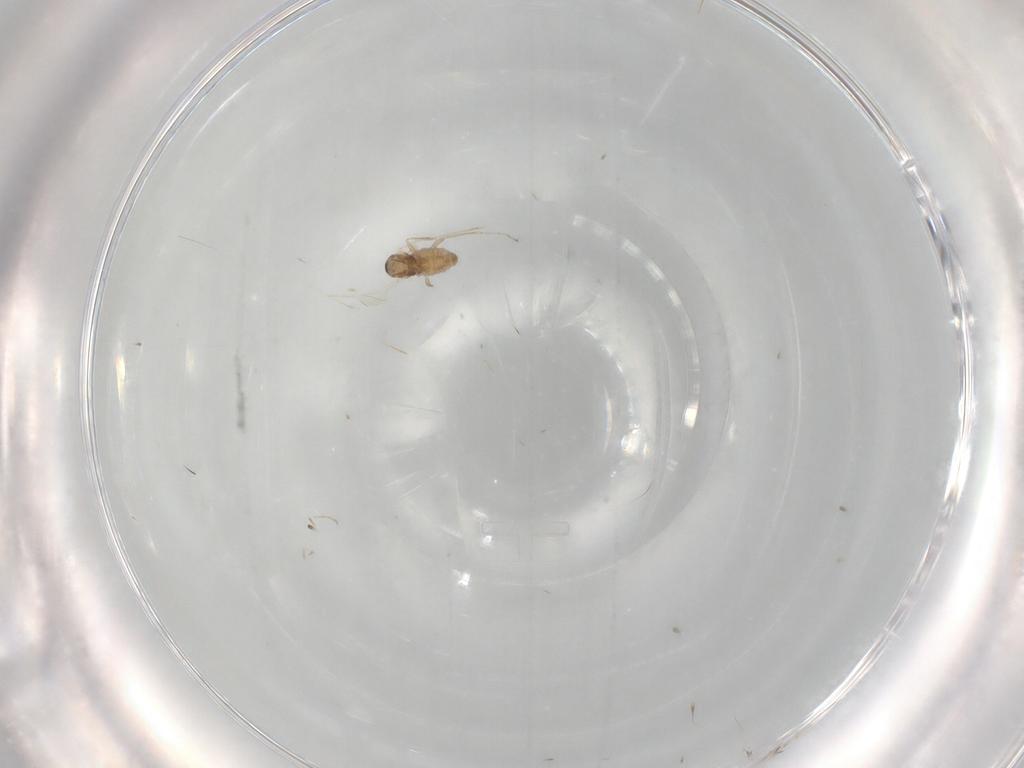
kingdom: Animalia
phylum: Arthropoda
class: Insecta
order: Diptera
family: Cecidomyiidae
